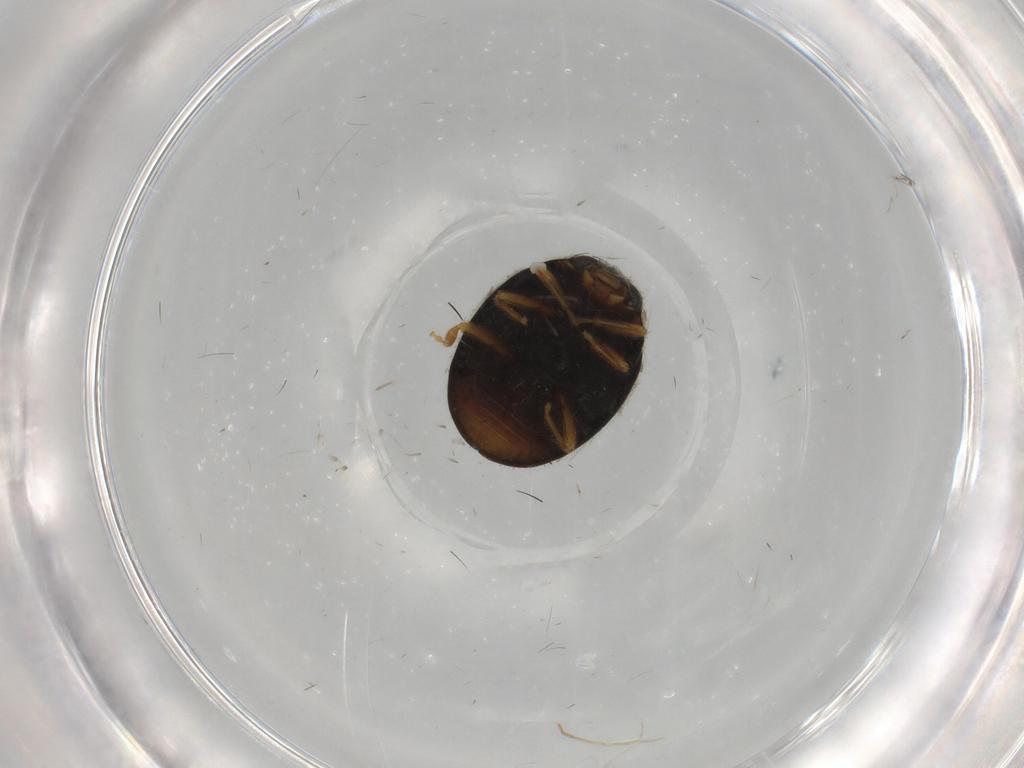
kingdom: Animalia
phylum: Arthropoda
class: Insecta
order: Coleoptera
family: Coccinellidae
